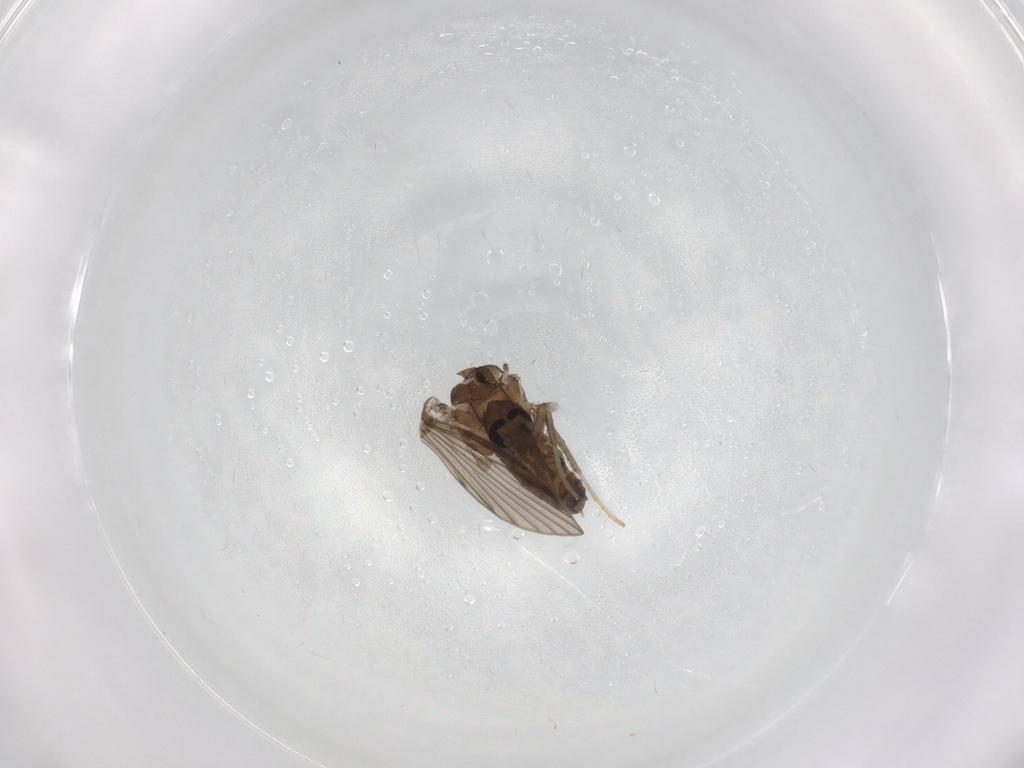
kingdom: Animalia
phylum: Arthropoda
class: Insecta
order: Diptera
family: Psychodidae
